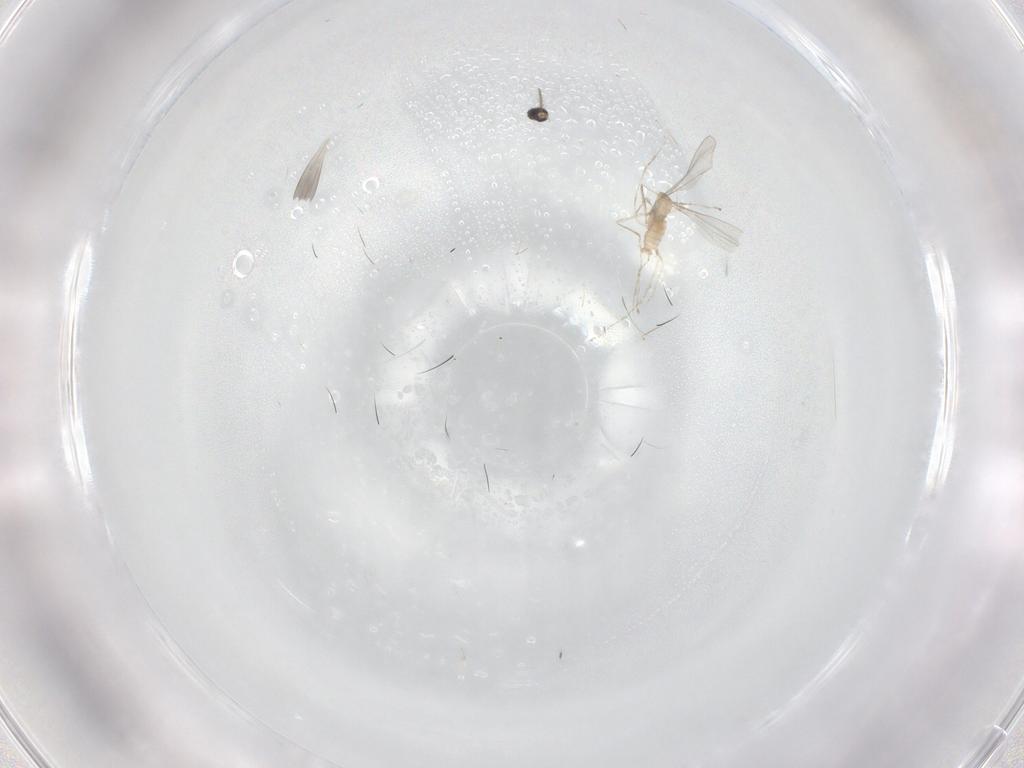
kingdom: Animalia
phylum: Arthropoda
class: Insecta
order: Diptera
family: Cecidomyiidae
